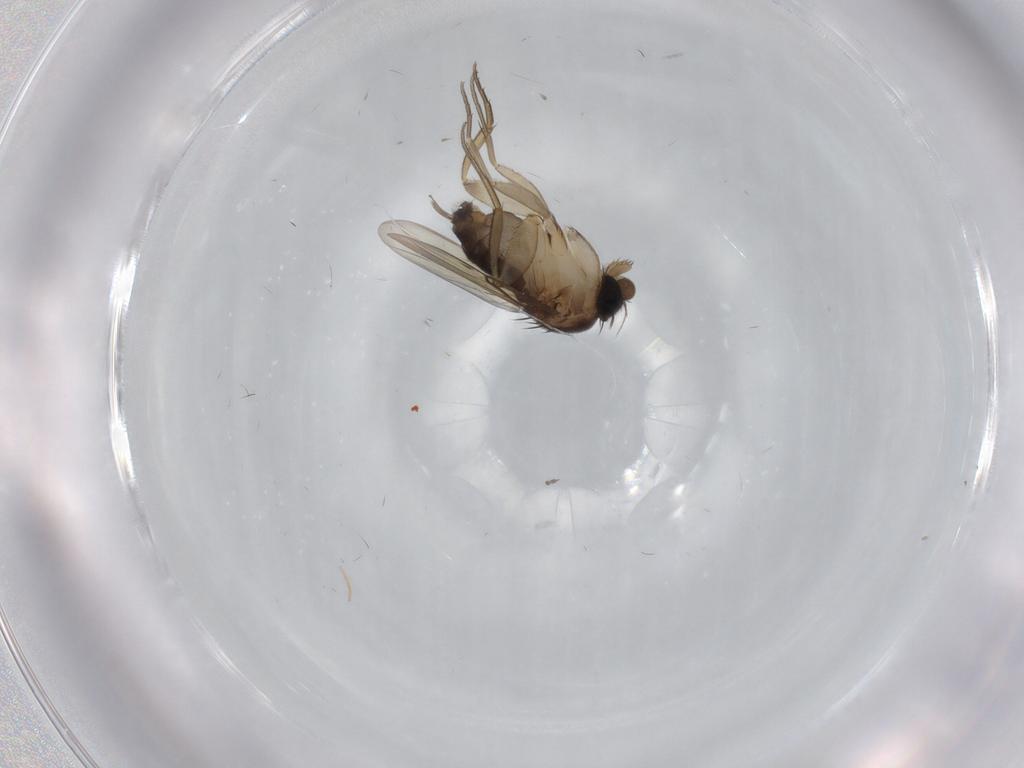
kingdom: Animalia
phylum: Arthropoda
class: Insecta
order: Diptera
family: Phoridae
